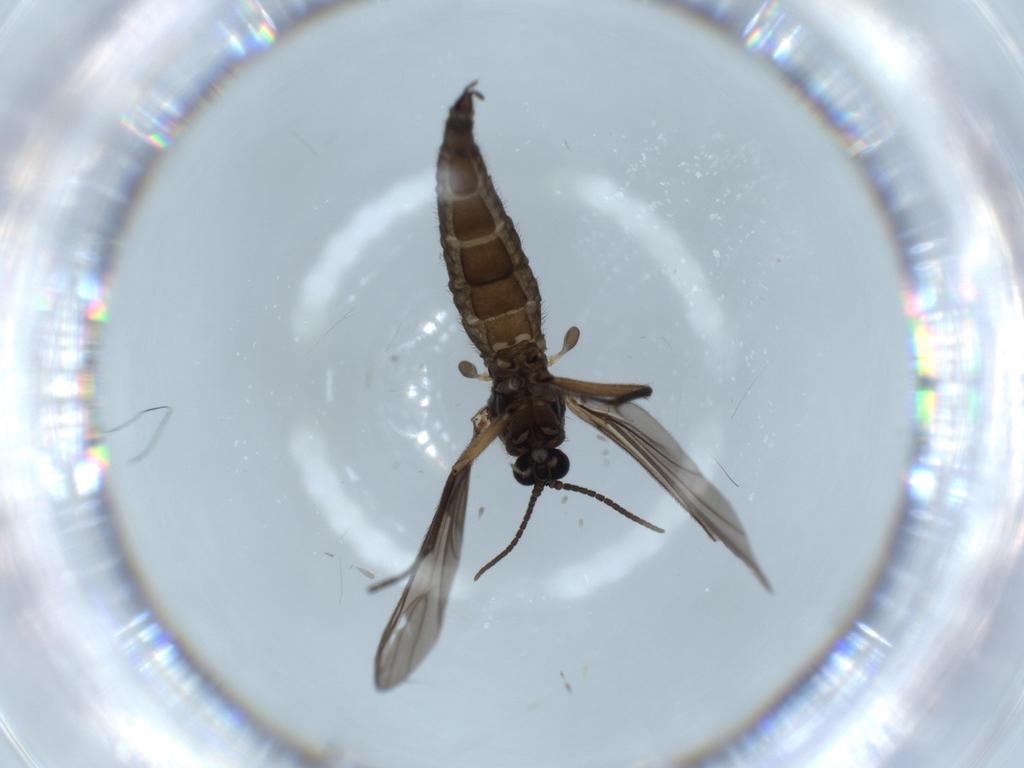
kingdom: Animalia
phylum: Arthropoda
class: Insecta
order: Diptera
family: Sciaridae
